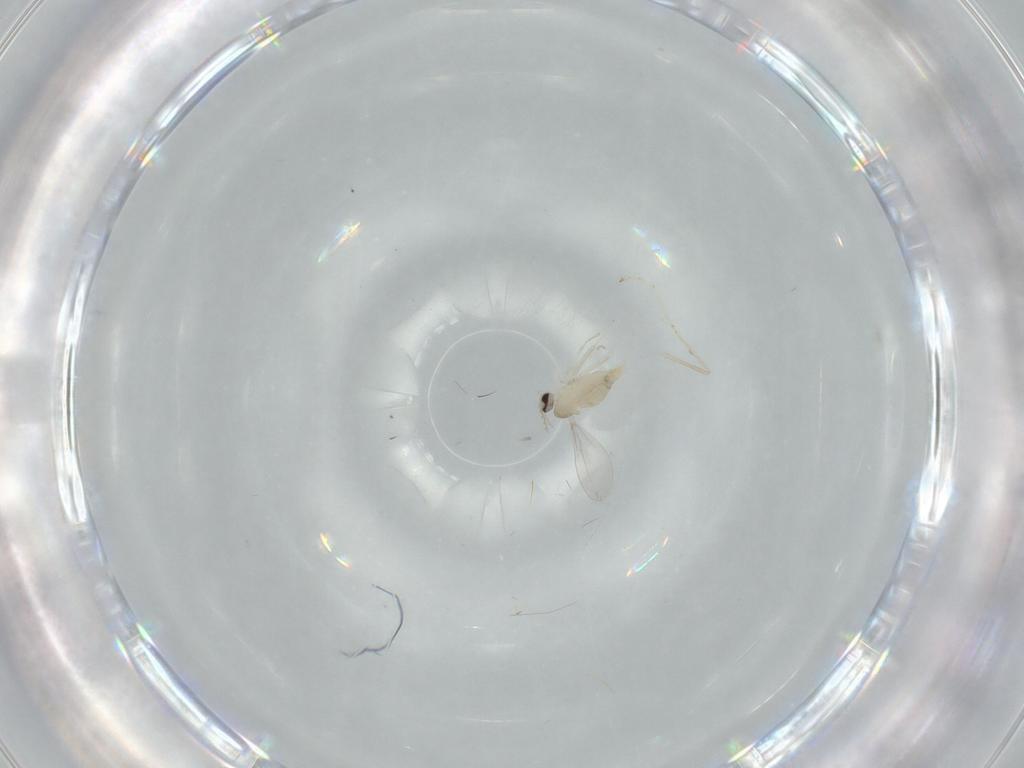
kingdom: Animalia
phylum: Arthropoda
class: Insecta
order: Diptera
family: Cecidomyiidae
